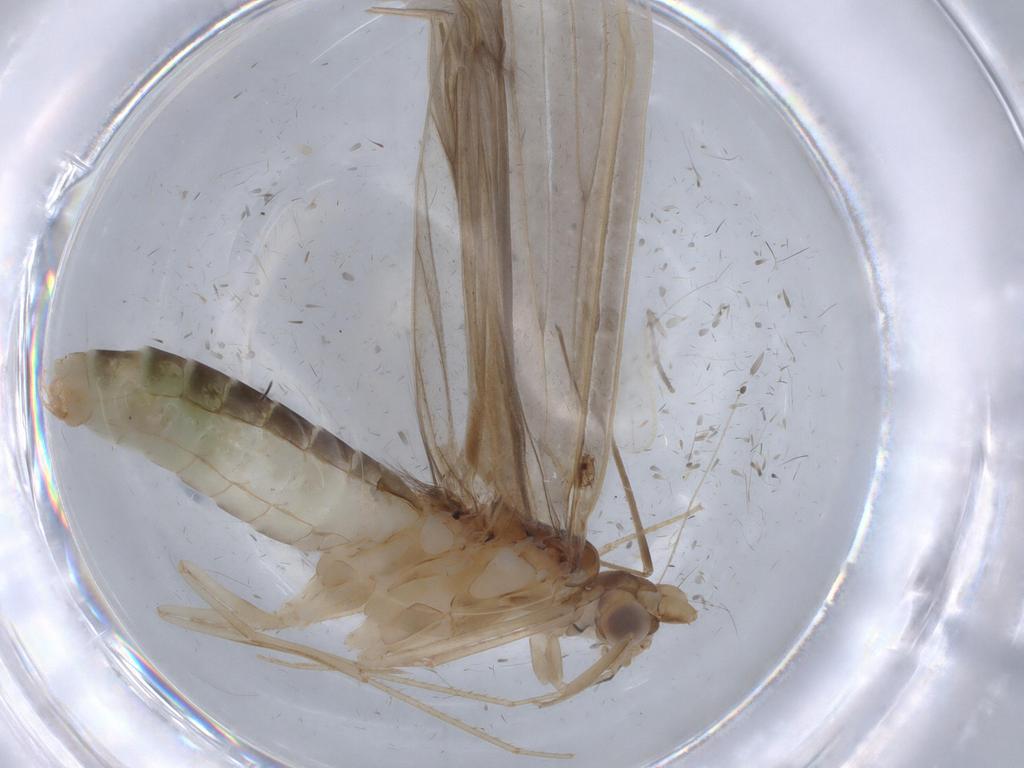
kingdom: Animalia
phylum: Arthropoda
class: Insecta
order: Trichoptera
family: Leptoceridae
